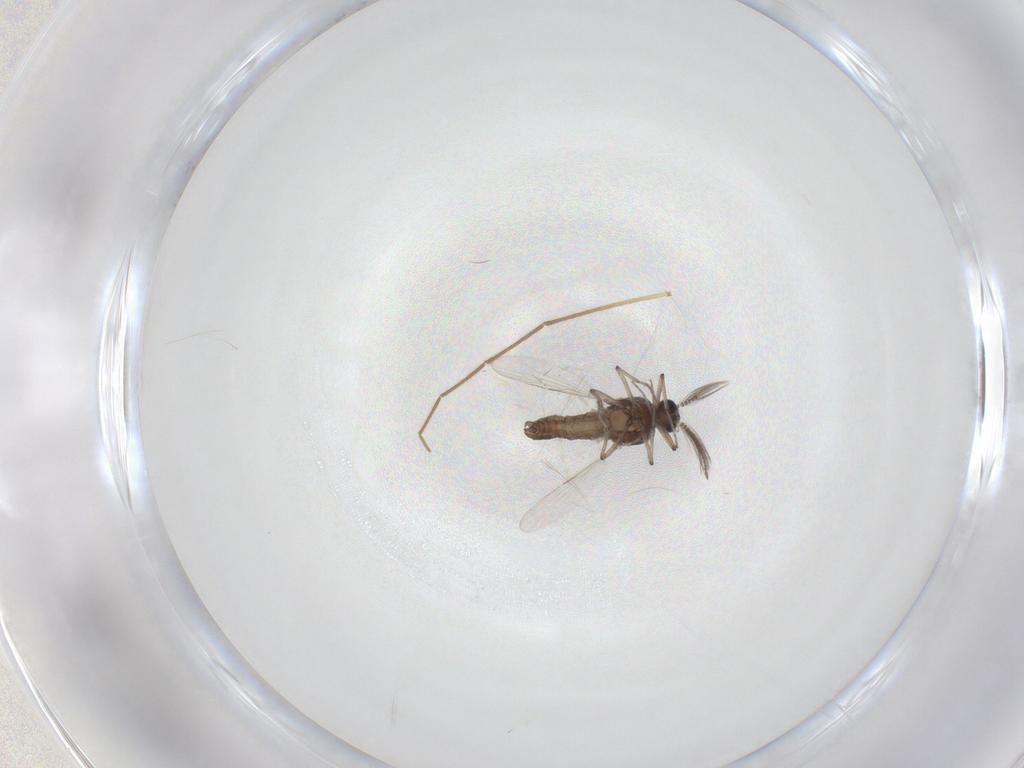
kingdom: Animalia
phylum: Arthropoda
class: Insecta
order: Diptera
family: Ceratopogonidae
